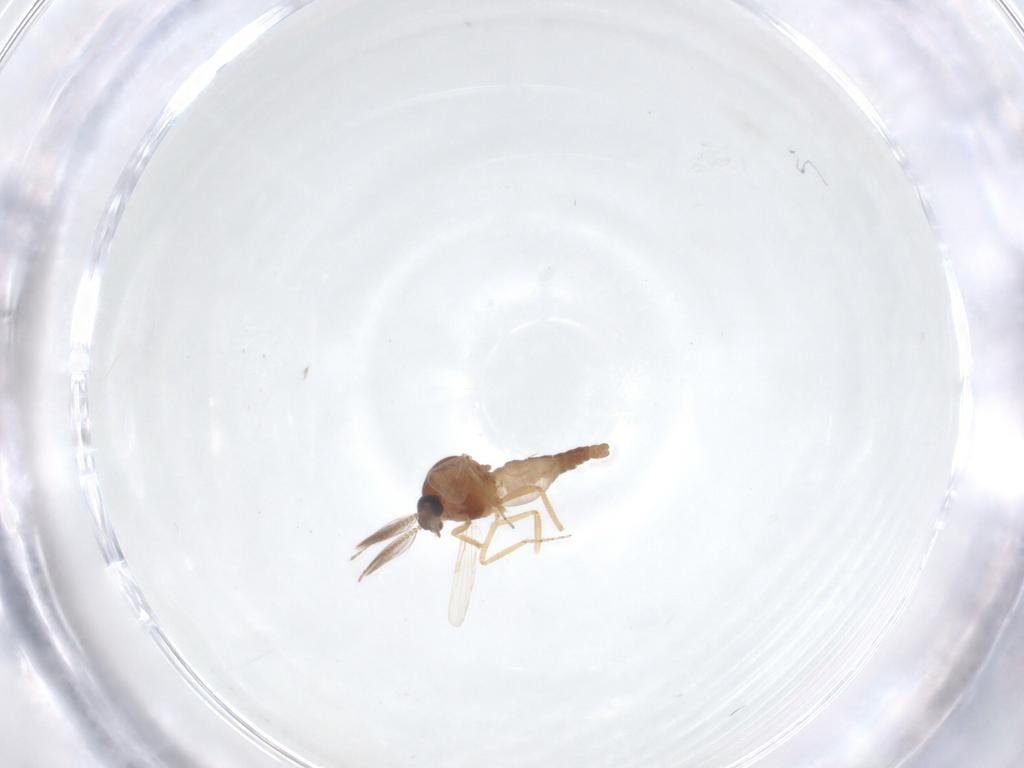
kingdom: Animalia
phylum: Arthropoda
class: Insecta
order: Diptera
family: Ceratopogonidae
